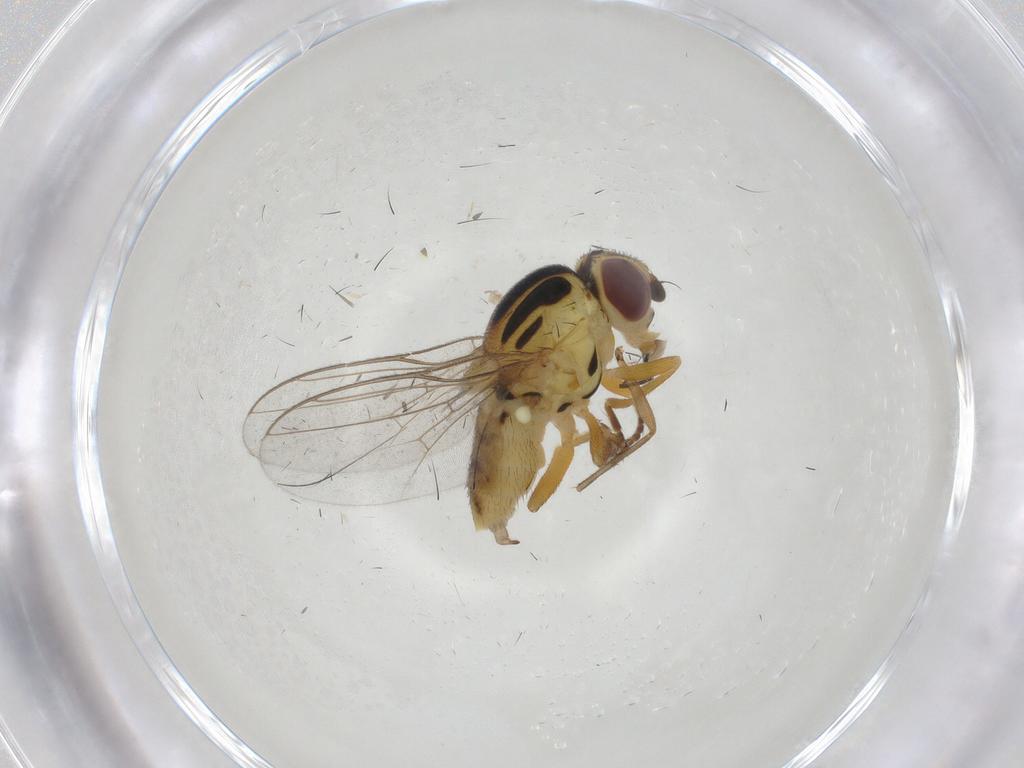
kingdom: Animalia
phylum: Arthropoda
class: Insecta
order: Diptera
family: Chloropidae
